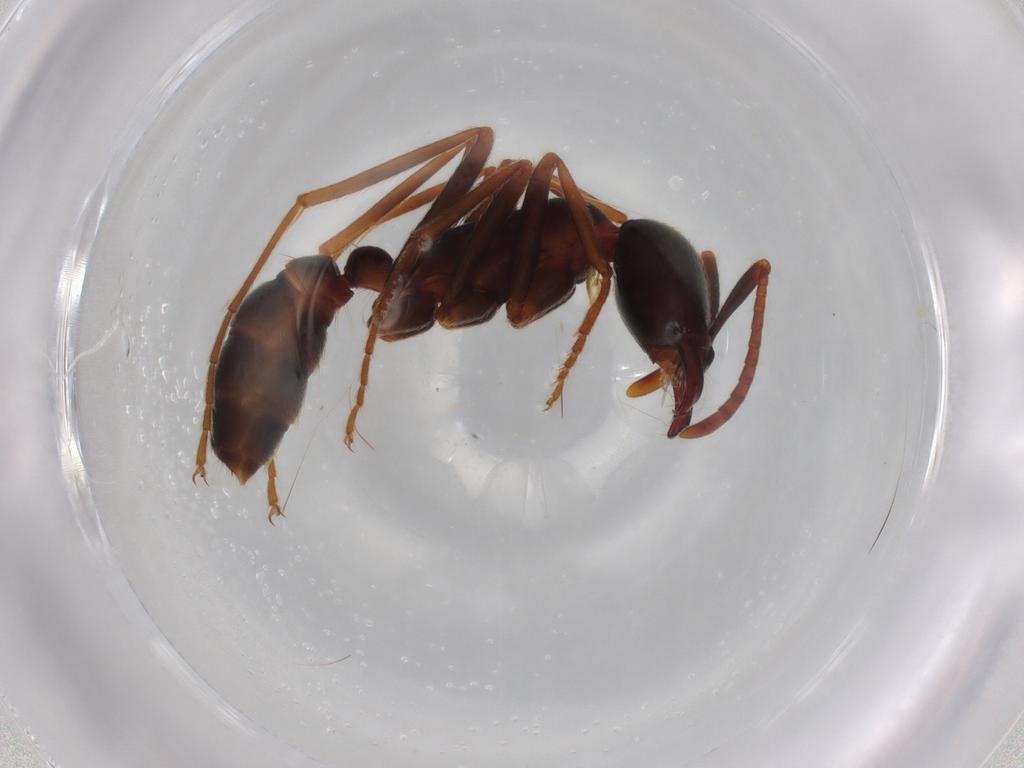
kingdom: Animalia
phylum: Arthropoda
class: Insecta
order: Hymenoptera
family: Formicidae
